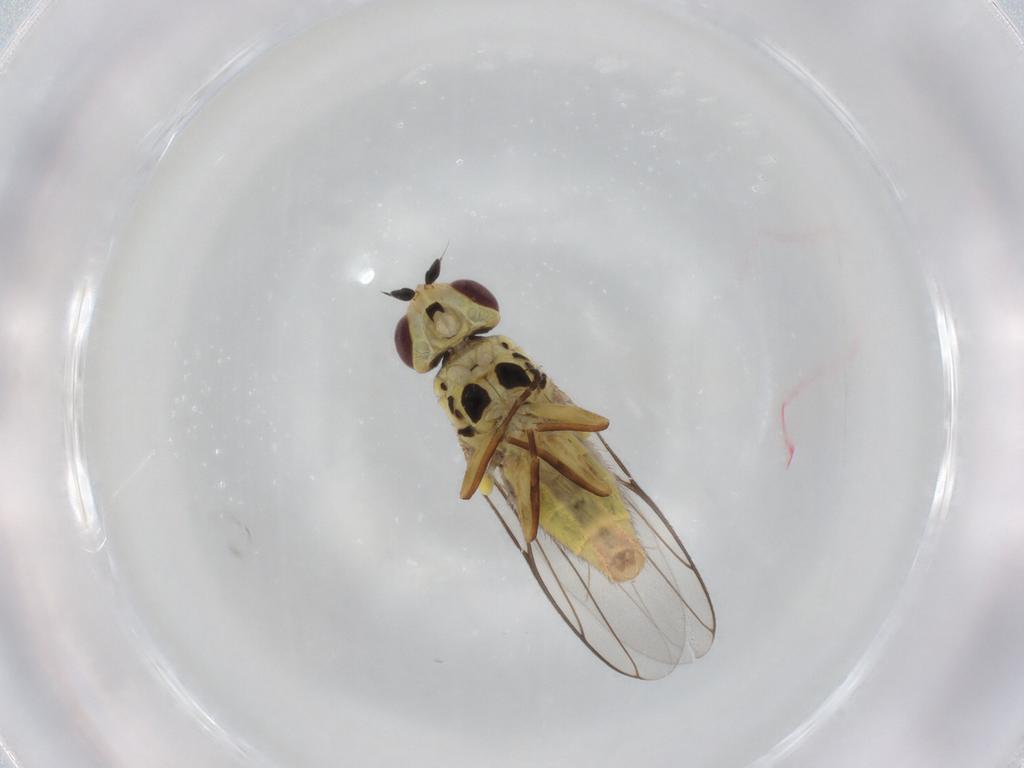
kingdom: Animalia
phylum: Arthropoda
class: Insecta
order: Diptera
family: Chloropidae
